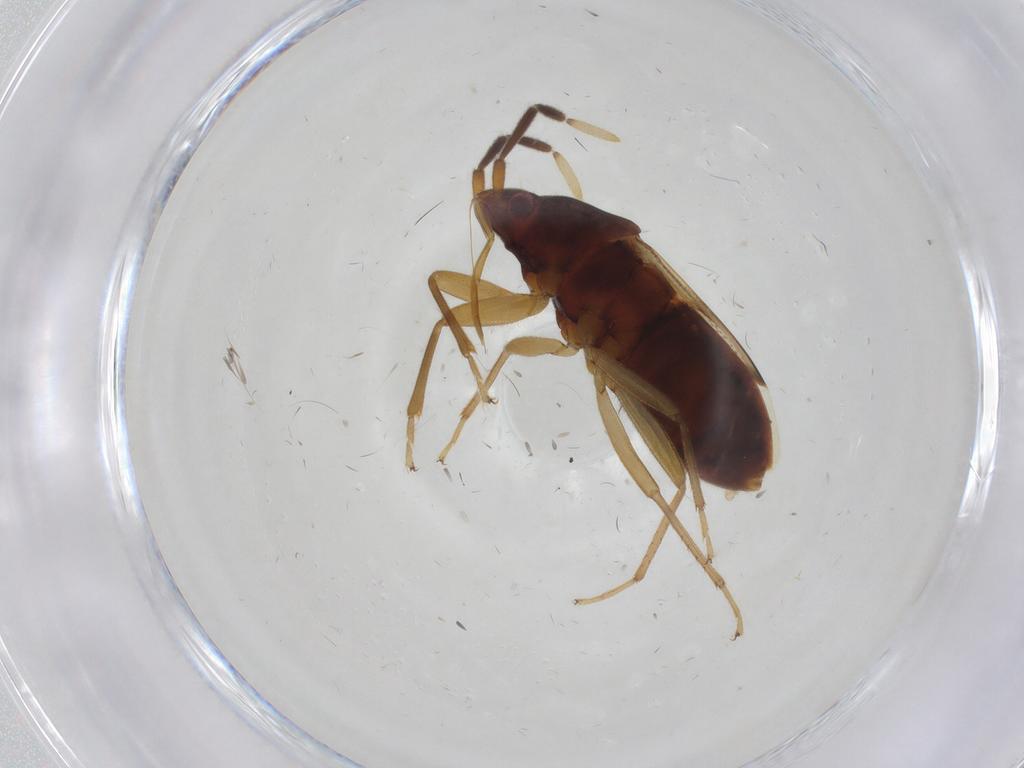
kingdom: Animalia
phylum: Arthropoda
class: Insecta
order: Hemiptera
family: Rhyparochromidae
